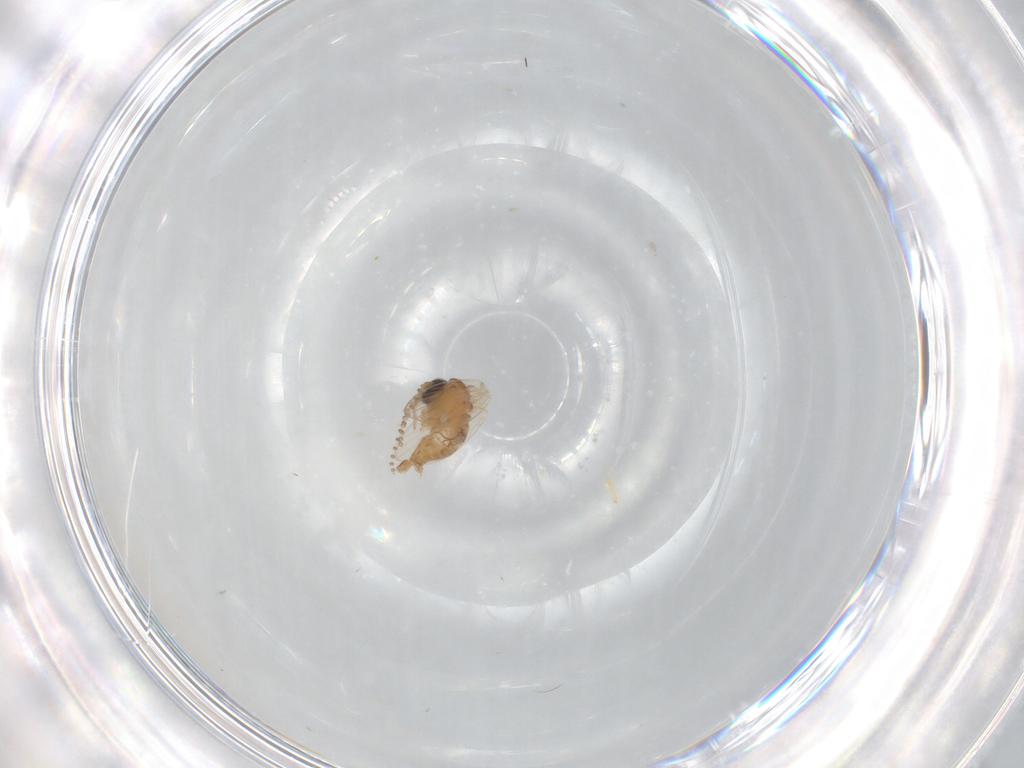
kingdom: Animalia
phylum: Arthropoda
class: Insecta
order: Diptera
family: Psychodidae
